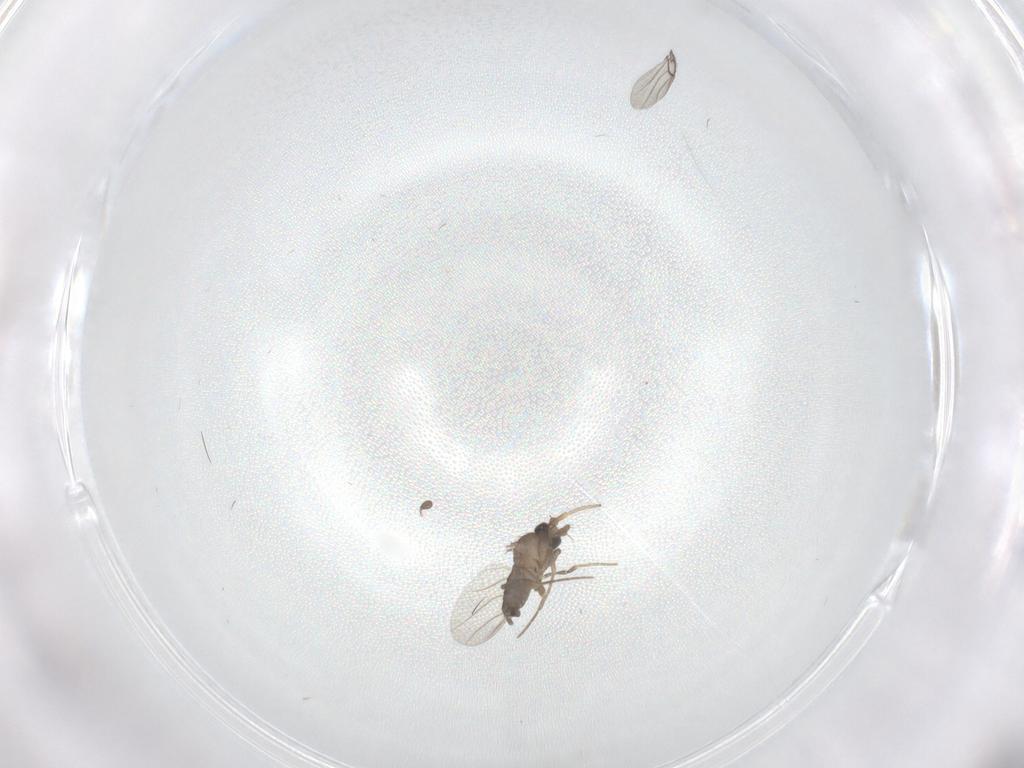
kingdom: Animalia
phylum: Arthropoda
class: Insecta
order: Diptera
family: Phoridae
